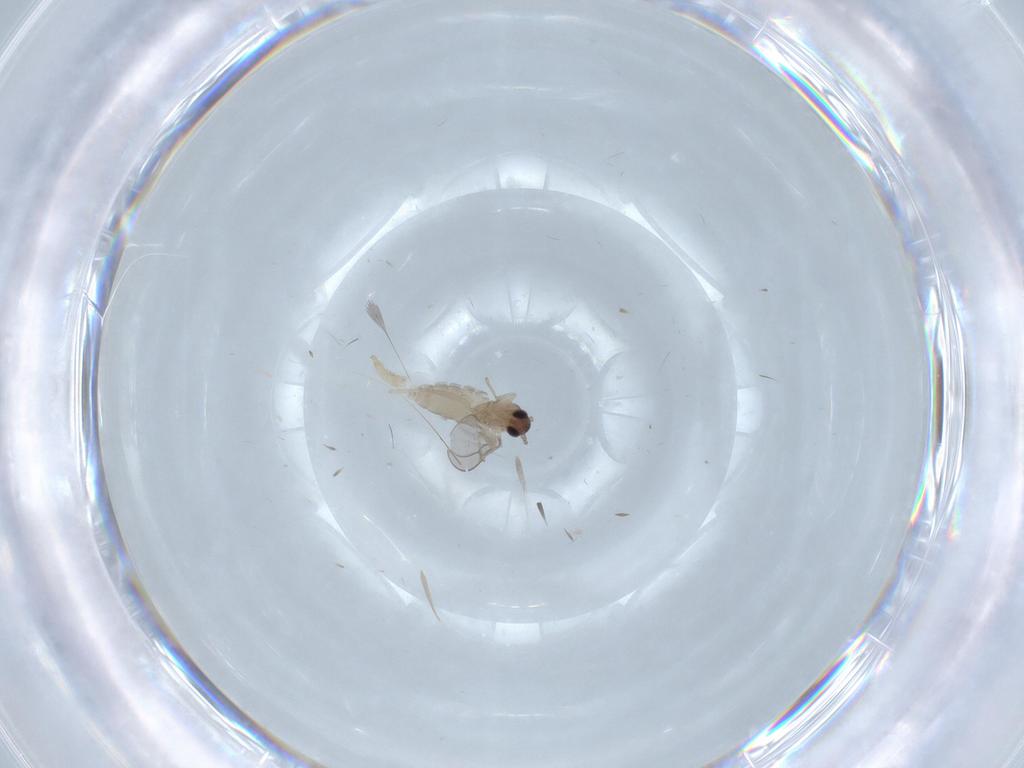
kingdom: Animalia
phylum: Arthropoda
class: Insecta
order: Diptera
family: Cecidomyiidae
